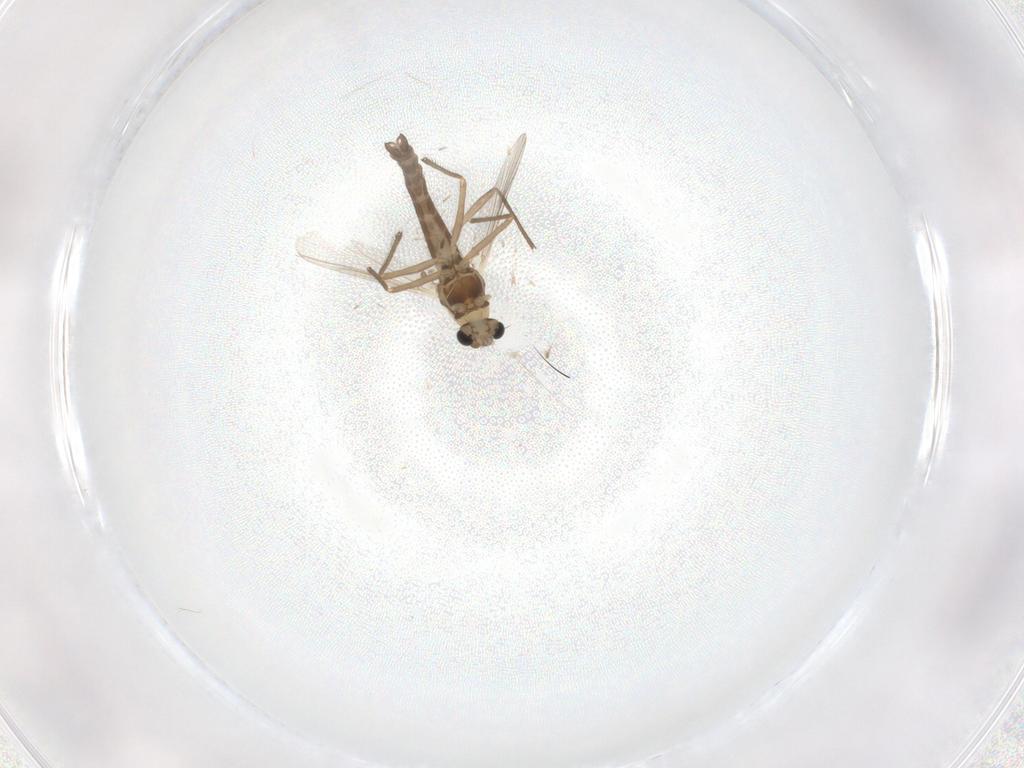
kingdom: Animalia
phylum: Arthropoda
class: Insecta
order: Diptera
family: Chironomidae
